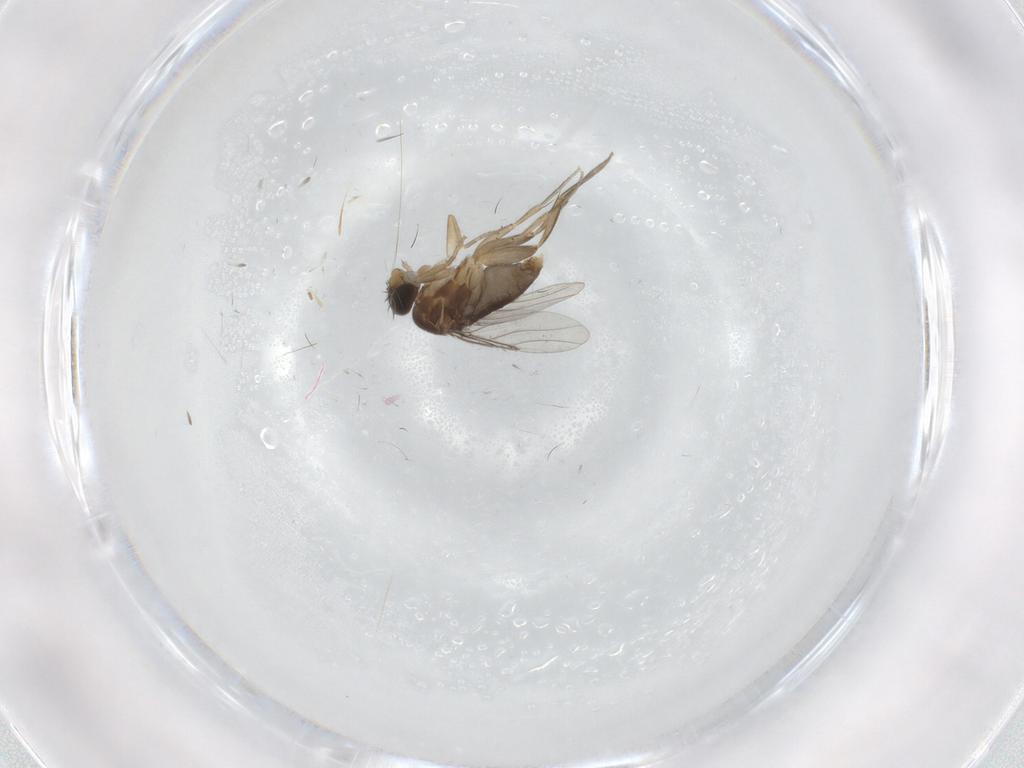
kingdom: Animalia
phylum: Arthropoda
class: Insecta
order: Diptera
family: Phoridae
